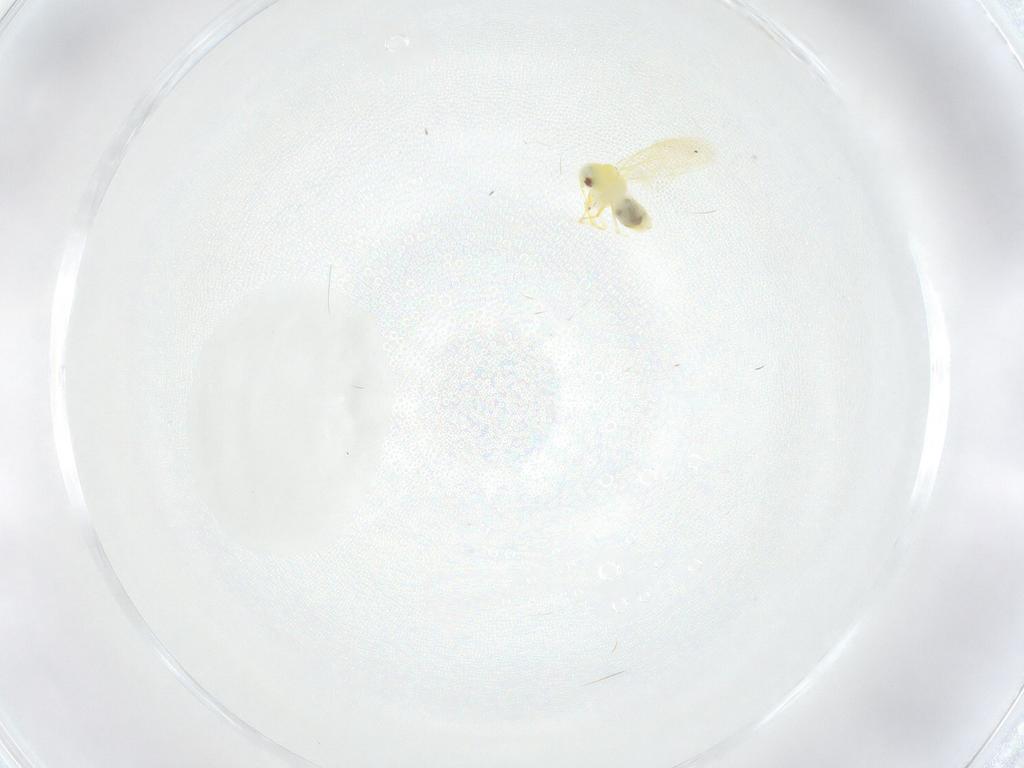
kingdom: Animalia
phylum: Arthropoda
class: Insecta
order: Hemiptera
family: Aleyrodidae
